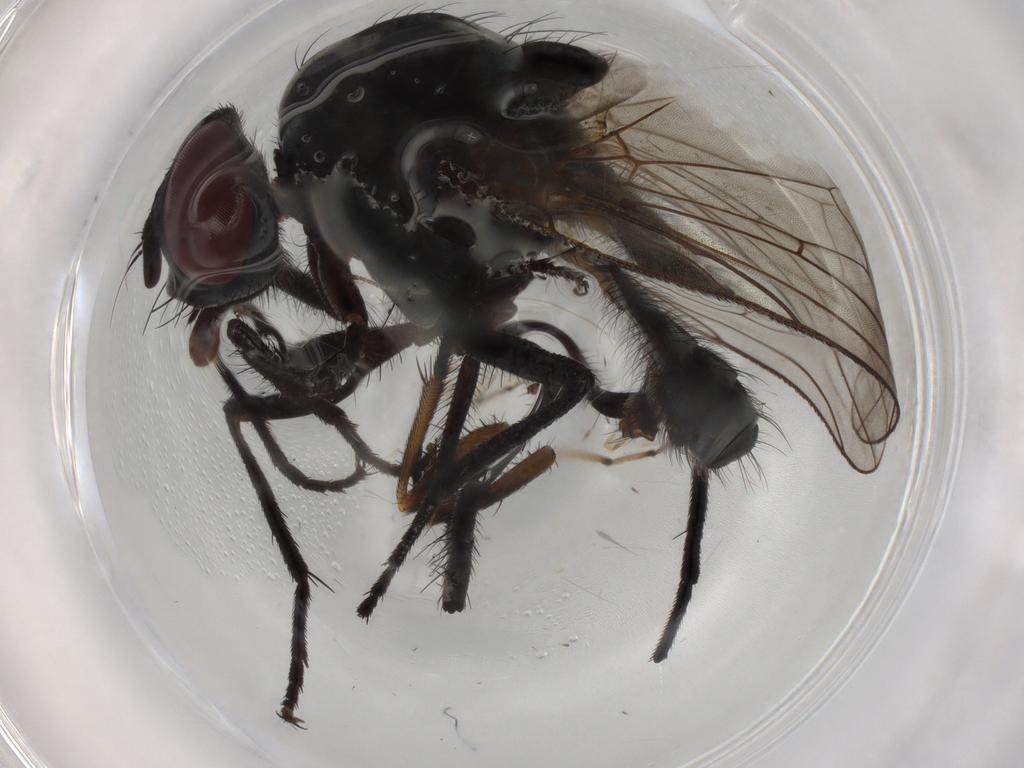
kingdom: Animalia
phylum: Arthropoda
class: Insecta
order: Diptera
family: Anthomyiidae
